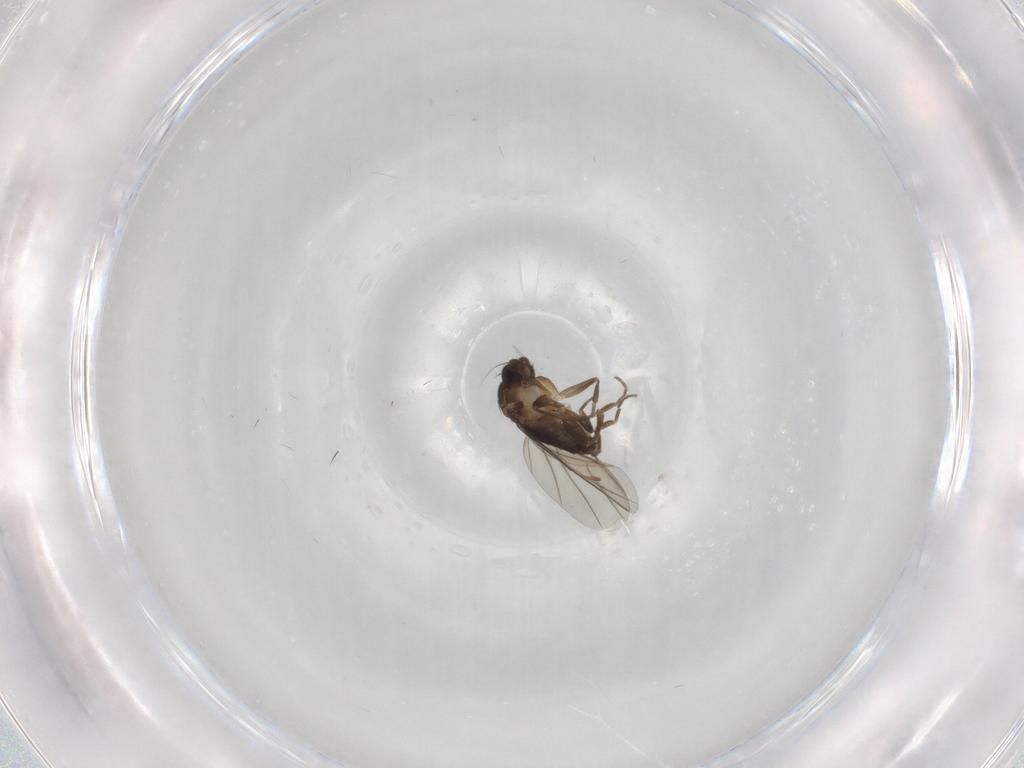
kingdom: Animalia
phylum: Arthropoda
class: Insecta
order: Diptera
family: Phoridae
